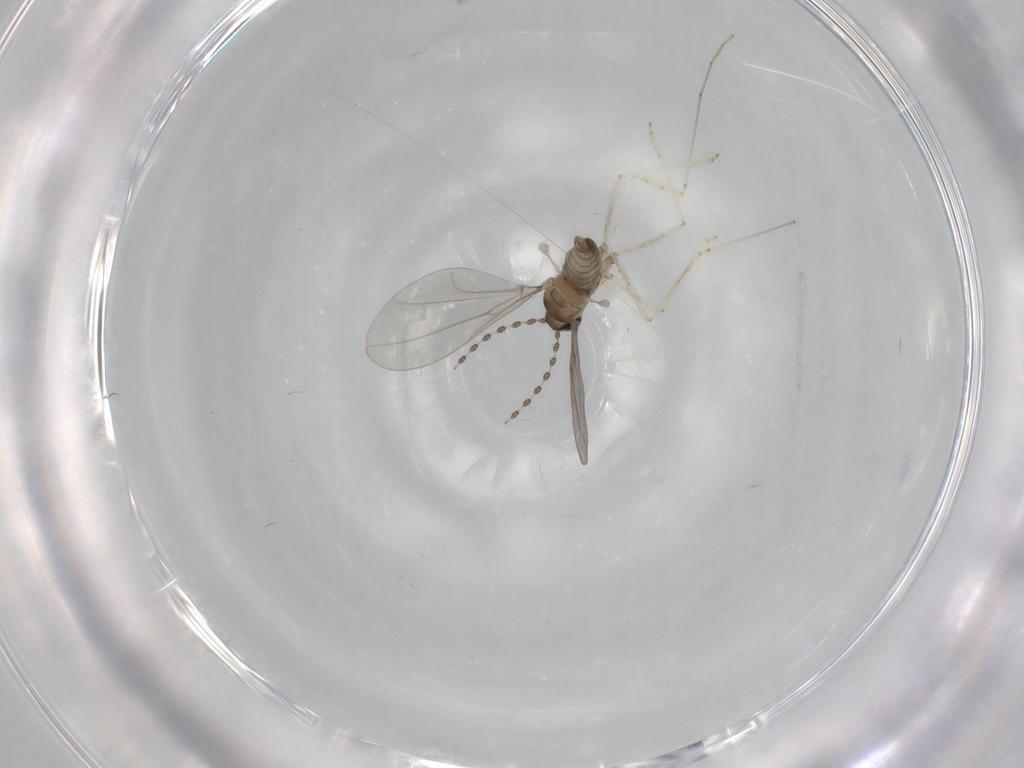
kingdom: Animalia
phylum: Arthropoda
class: Insecta
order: Diptera
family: Cecidomyiidae
